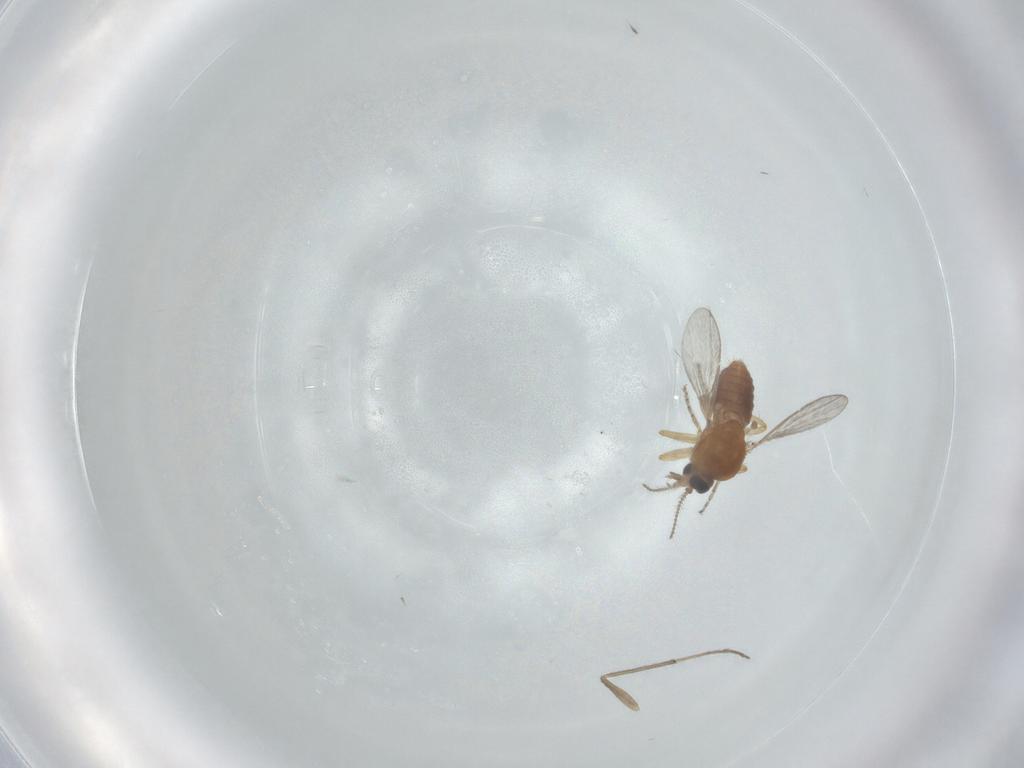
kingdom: Animalia
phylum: Arthropoda
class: Insecta
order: Diptera
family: Ceratopogonidae
